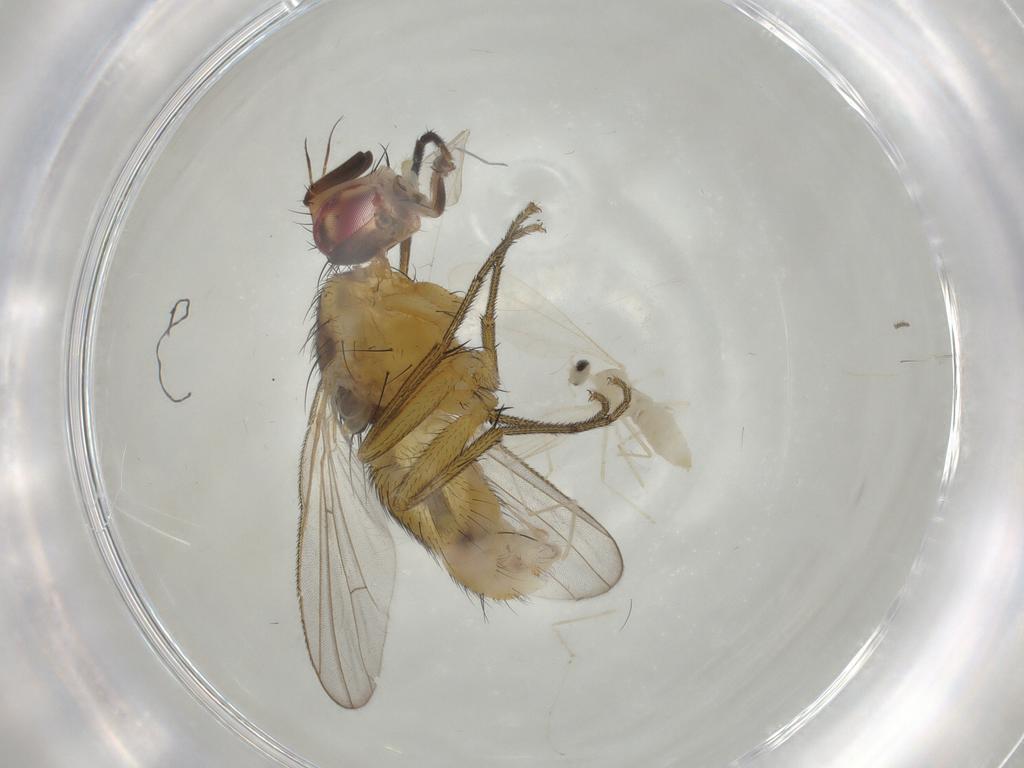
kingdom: Animalia
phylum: Arthropoda
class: Insecta
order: Diptera
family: Muscidae
